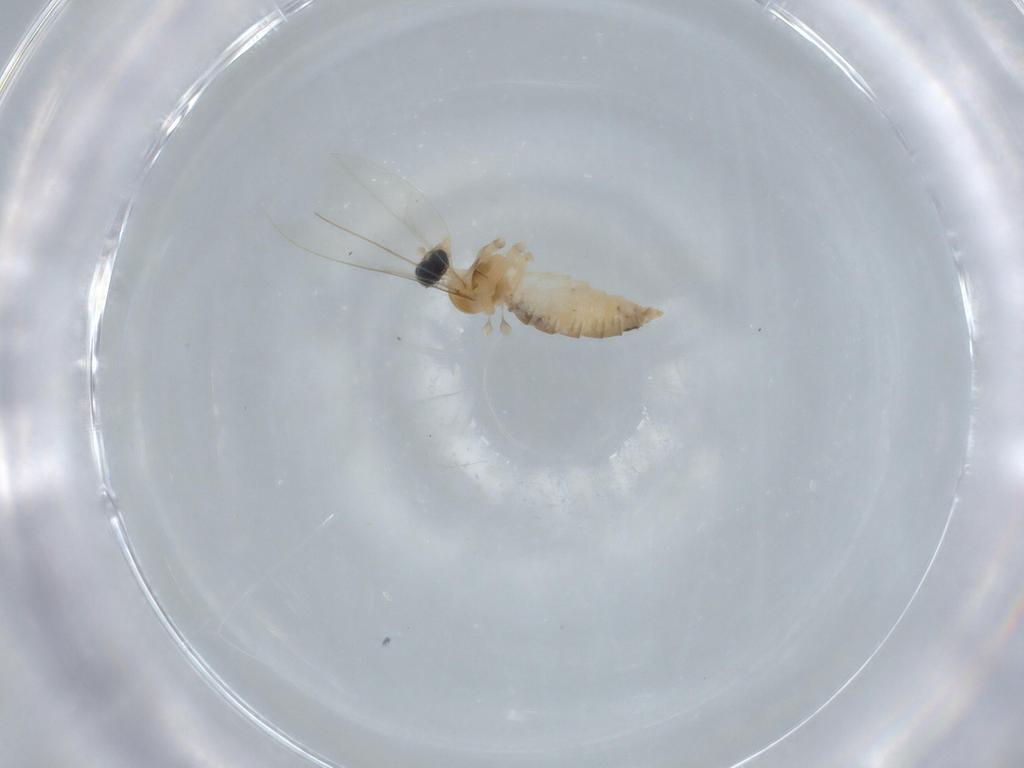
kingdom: Animalia
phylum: Arthropoda
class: Insecta
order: Diptera
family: Cecidomyiidae
